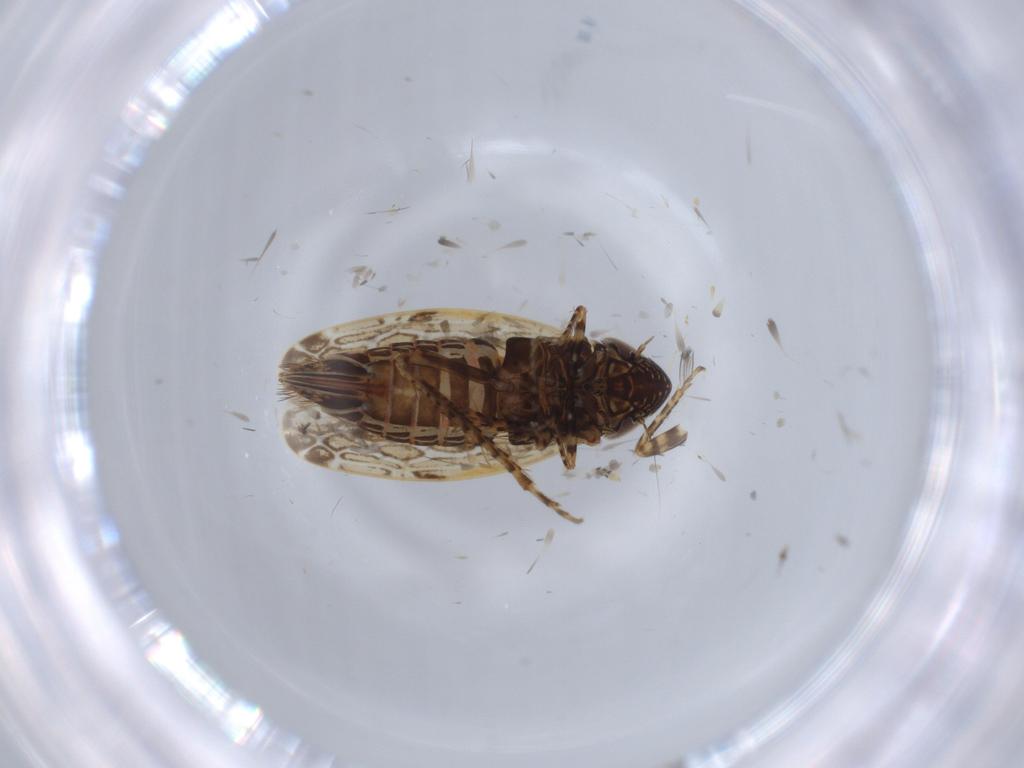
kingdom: Animalia
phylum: Arthropoda
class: Insecta
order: Hemiptera
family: Cicadellidae
